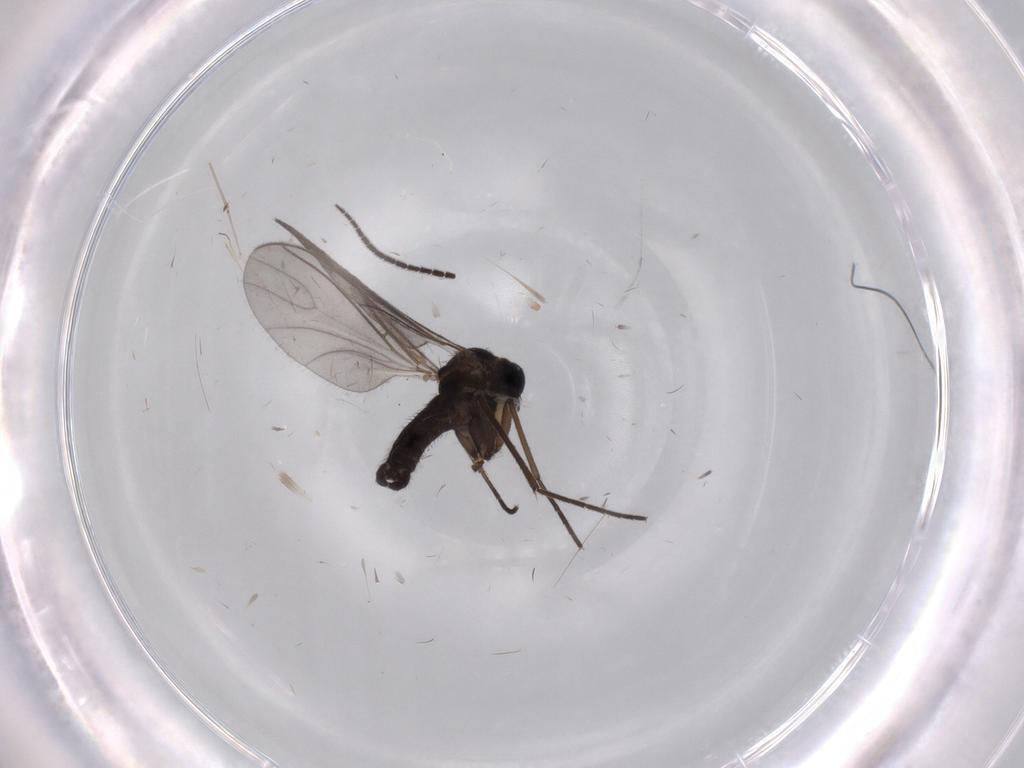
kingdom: Animalia
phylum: Arthropoda
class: Insecta
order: Diptera
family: Sciaridae
